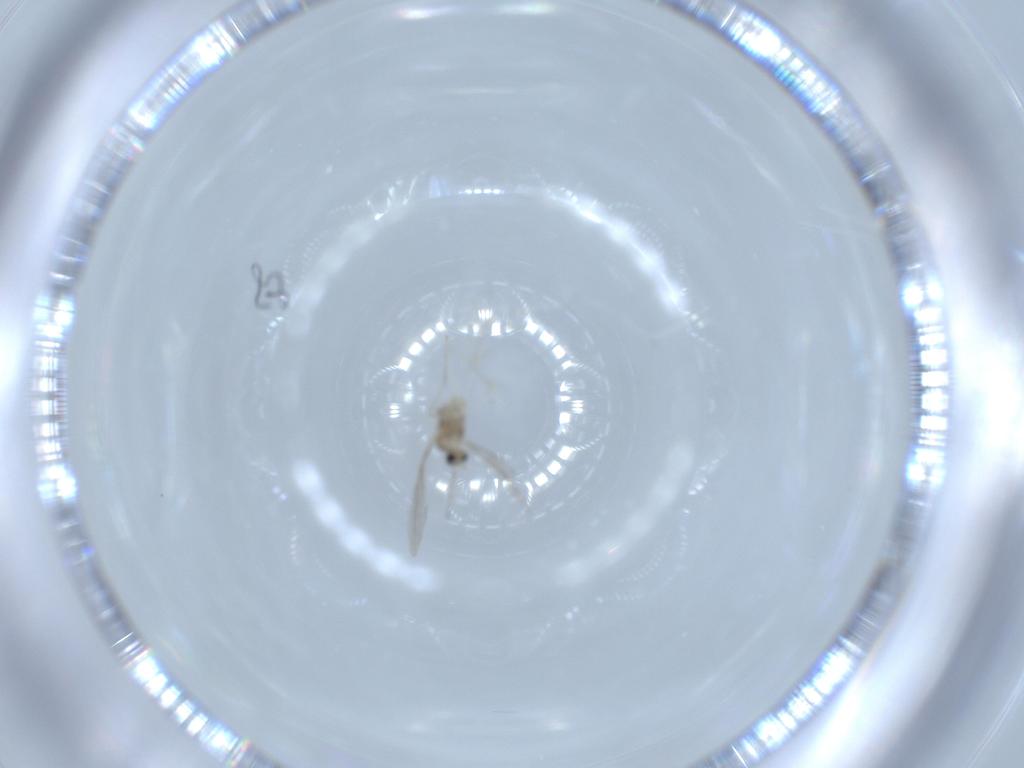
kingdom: Animalia
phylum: Arthropoda
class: Insecta
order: Diptera
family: Cecidomyiidae
